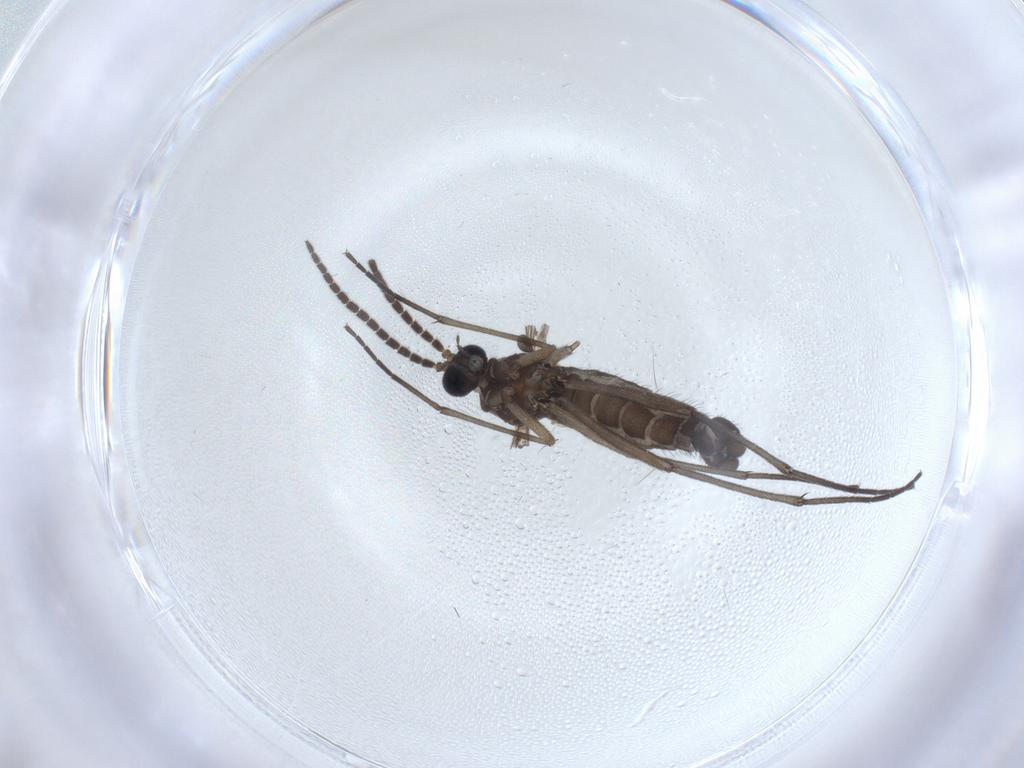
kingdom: Animalia
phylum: Arthropoda
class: Insecta
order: Diptera
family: Sciaridae
